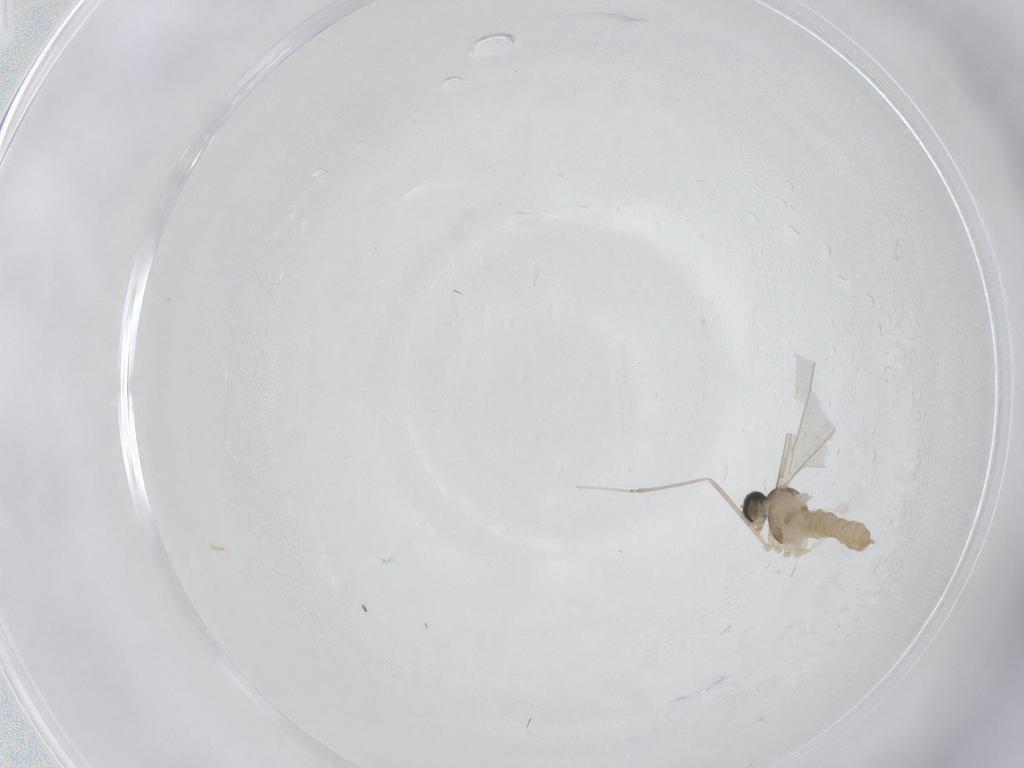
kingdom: Animalia
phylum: Arthropoda
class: Insecta
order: Diptera
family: Cecidomyiidae
